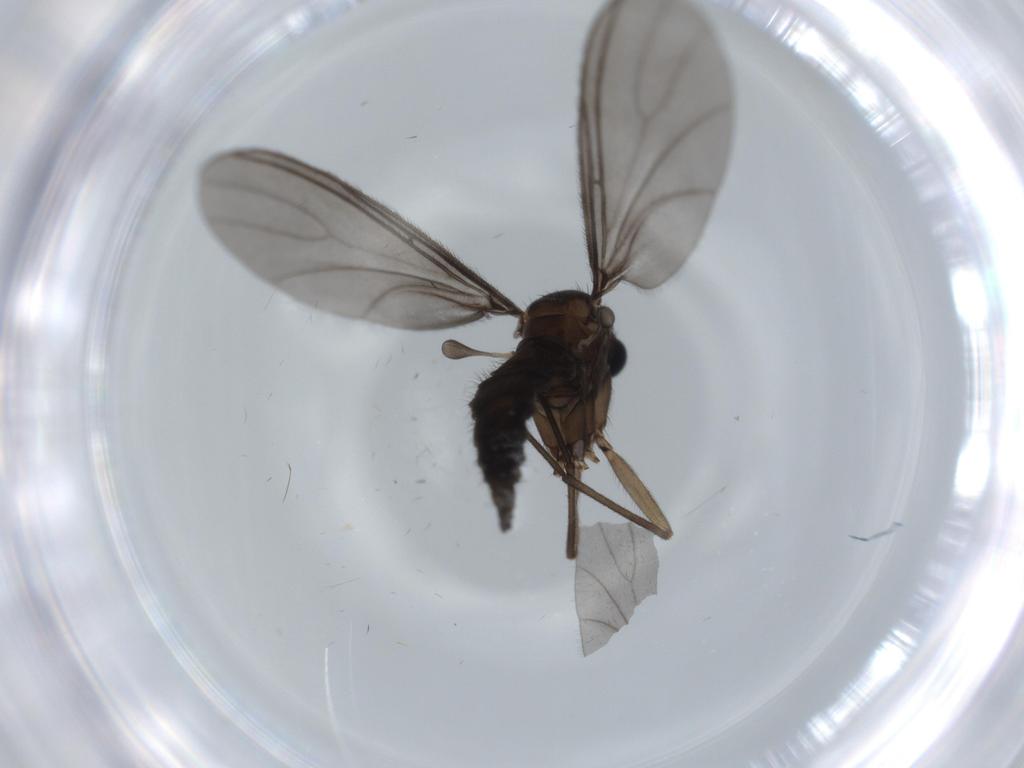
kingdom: Animalia
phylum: Arthropoda
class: Insecta
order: Diptera
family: Sciaridae
